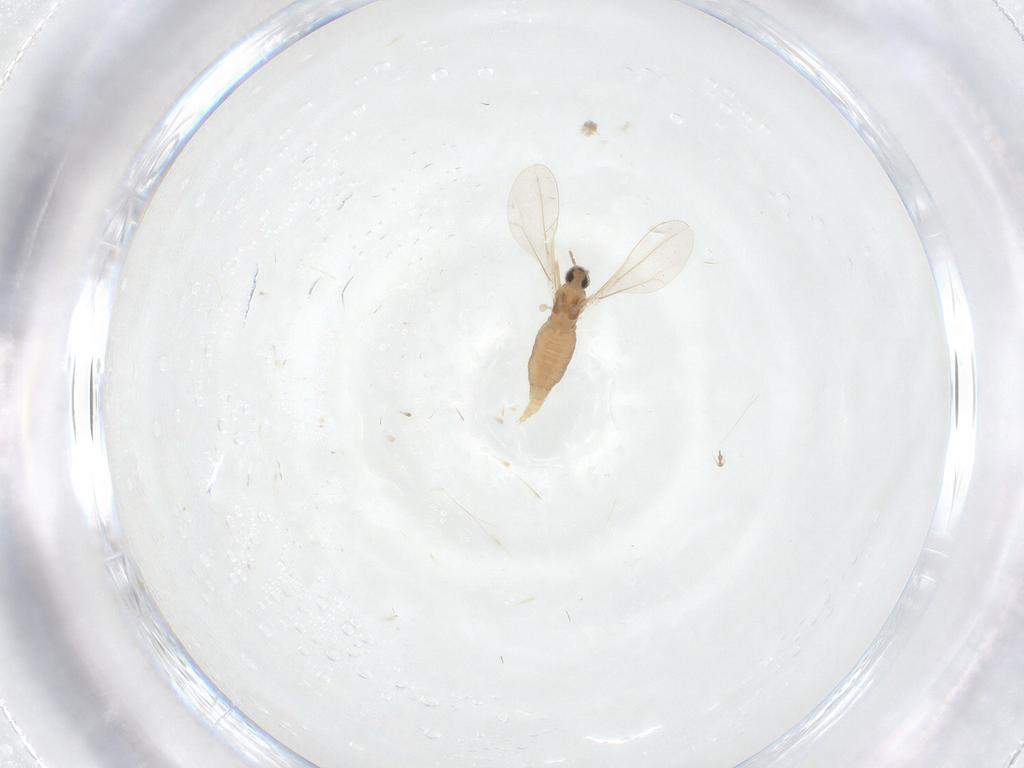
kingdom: Animalia
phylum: Arthropoda
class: Insecta
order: Diptera
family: Cecidomyiidae
